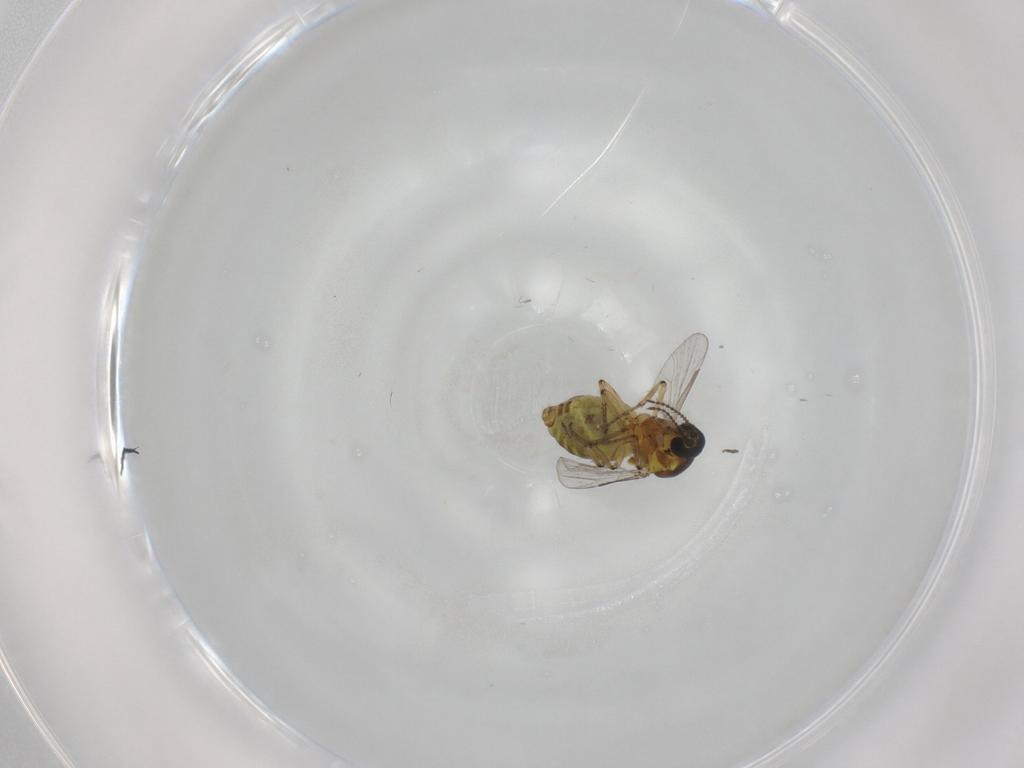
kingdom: Animalia
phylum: Arthropoda
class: Insecta
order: Diptera
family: Ceratopogonidae
